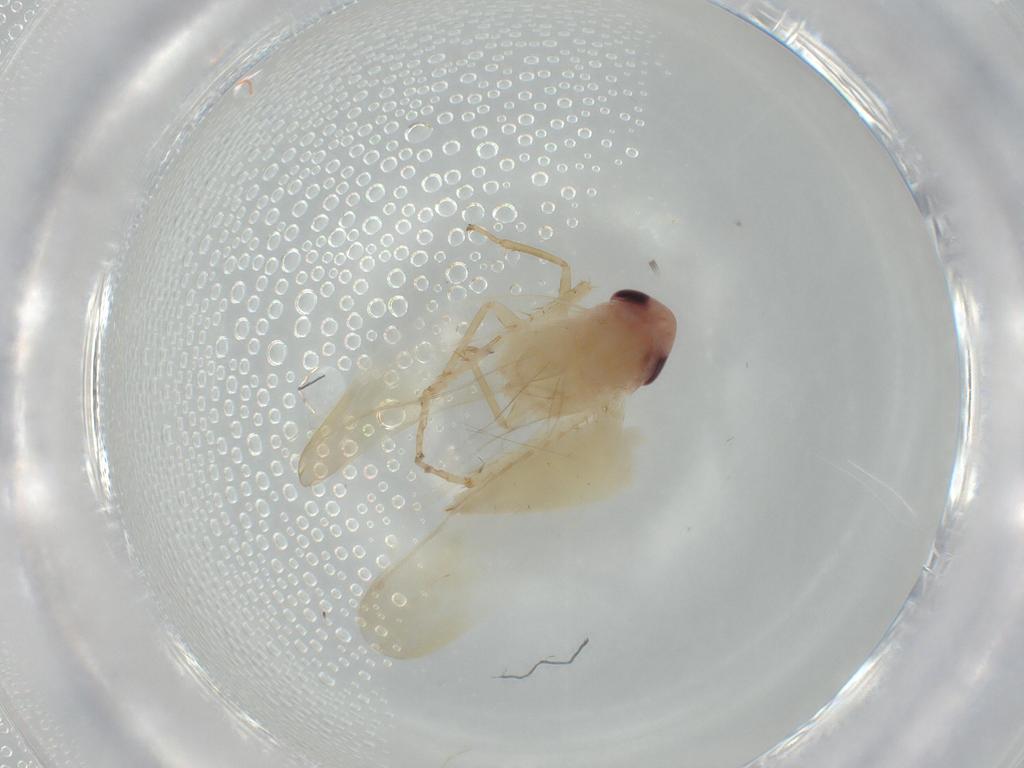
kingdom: Animalia
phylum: Arthropoda
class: Insecta
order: Hemiptera
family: Cicadellidae
